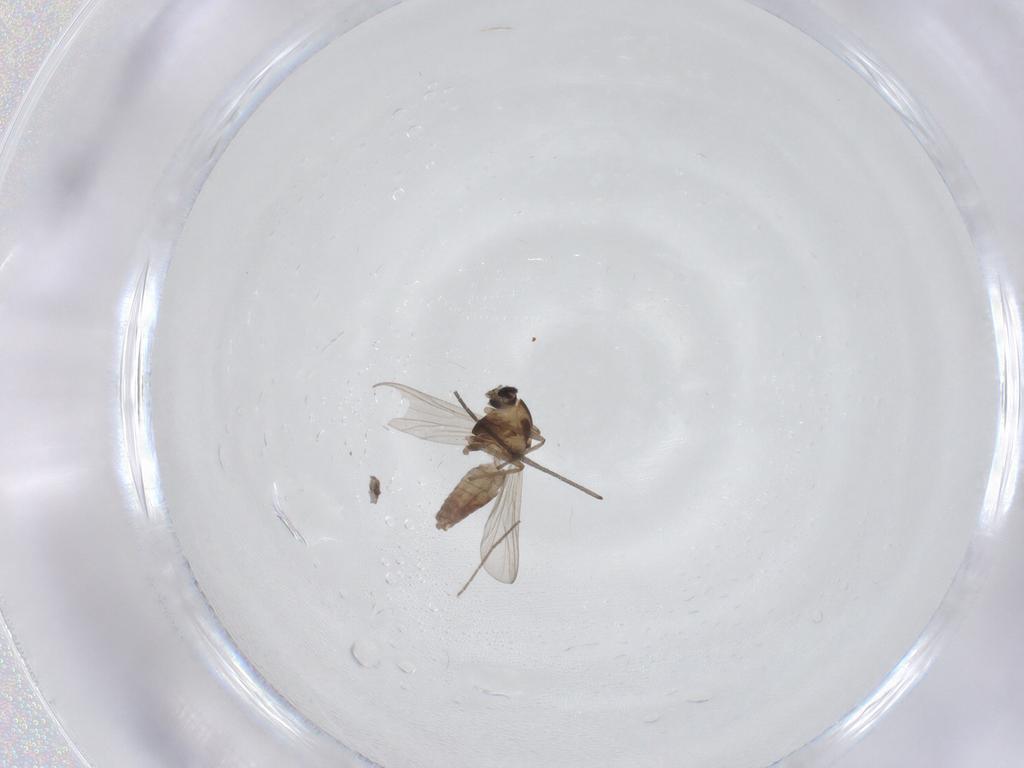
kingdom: Animalia
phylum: Arthropoda
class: Insecta
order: Diptera
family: Chironomidae
